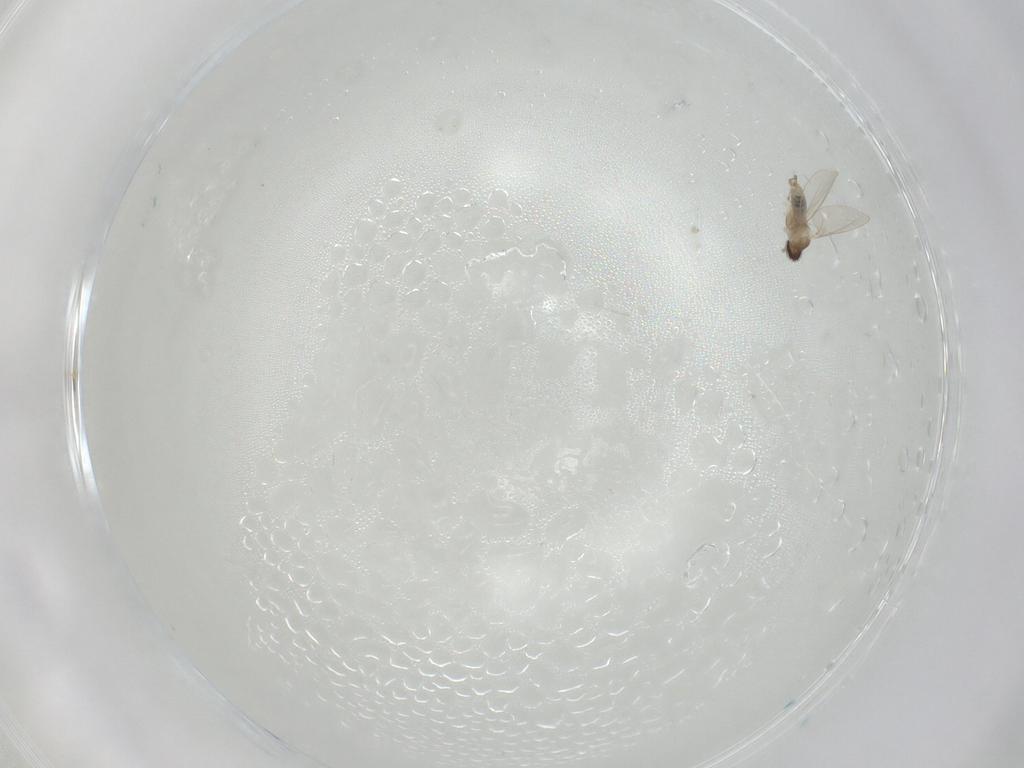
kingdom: Animalia
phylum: Arthropoda
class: Insecta
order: Diptera
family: Muscidae
